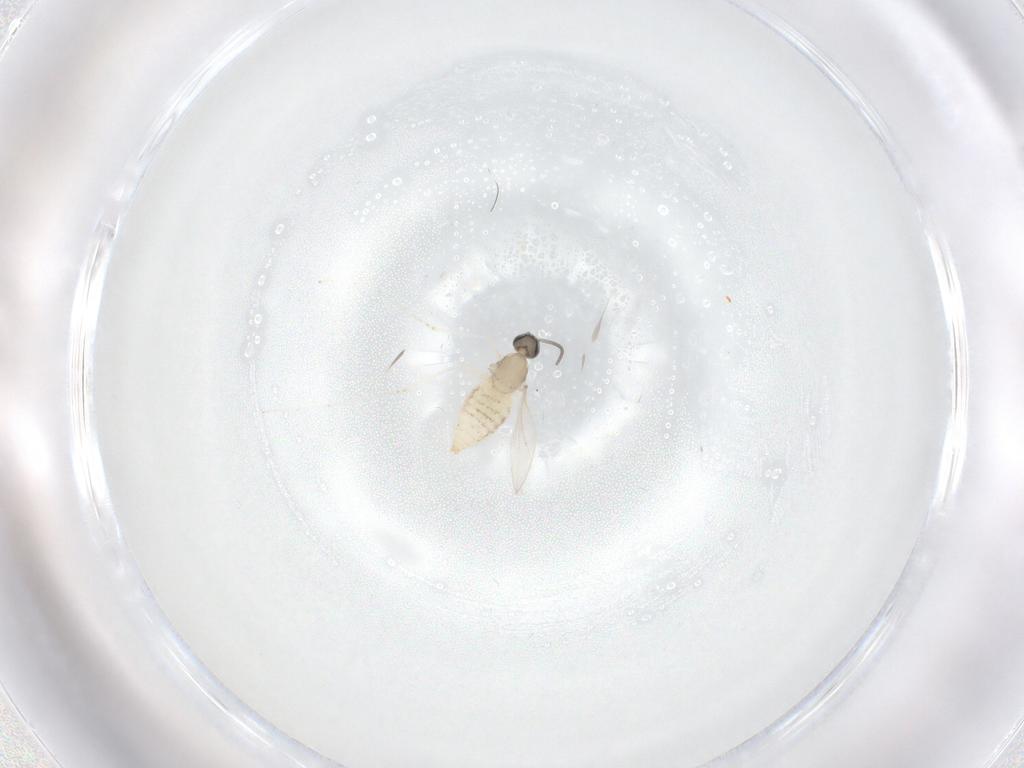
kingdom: Animalia
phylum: Arthropoda
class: Insecta
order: Diptera
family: Cecidomyiidae
